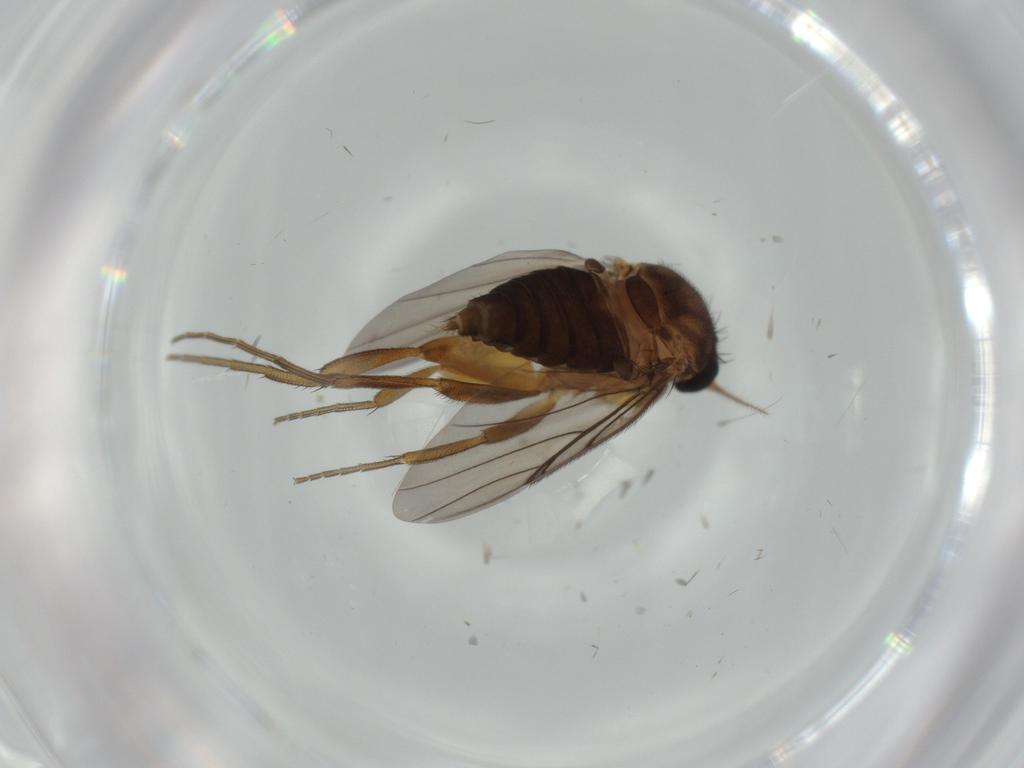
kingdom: Animalia
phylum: Arthropoda
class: Insecta
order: Diptera
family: Sciaridae
